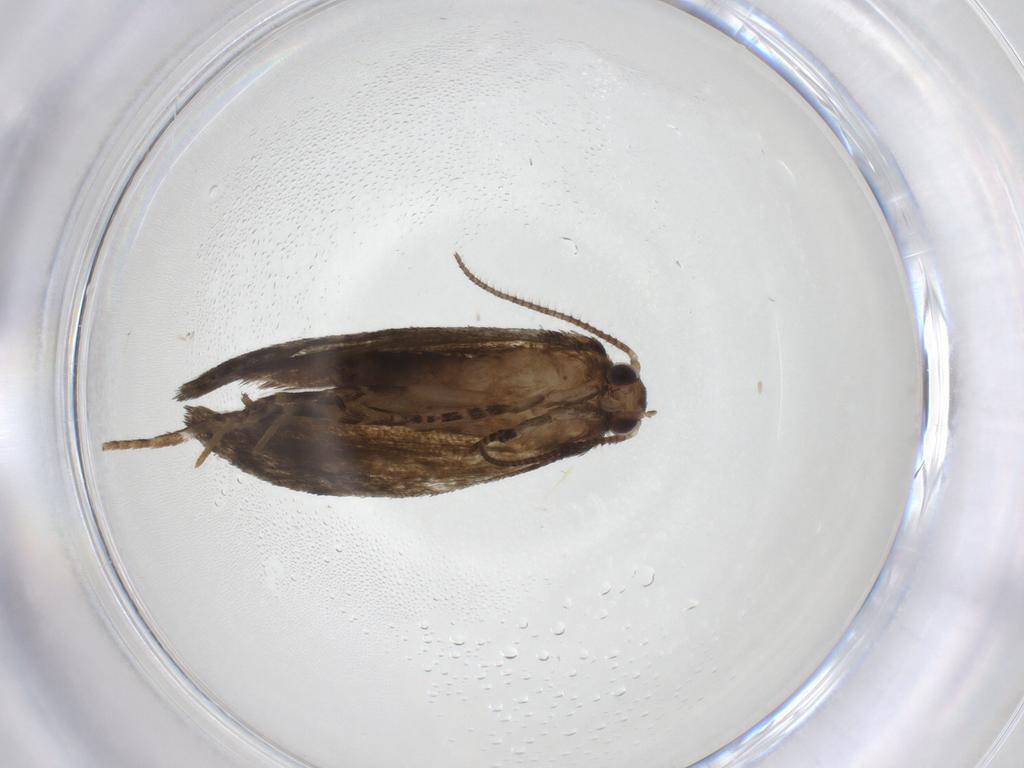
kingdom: Animalia
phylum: Arthropoda
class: Insecta
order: Lepidoptera
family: Tortricidae
